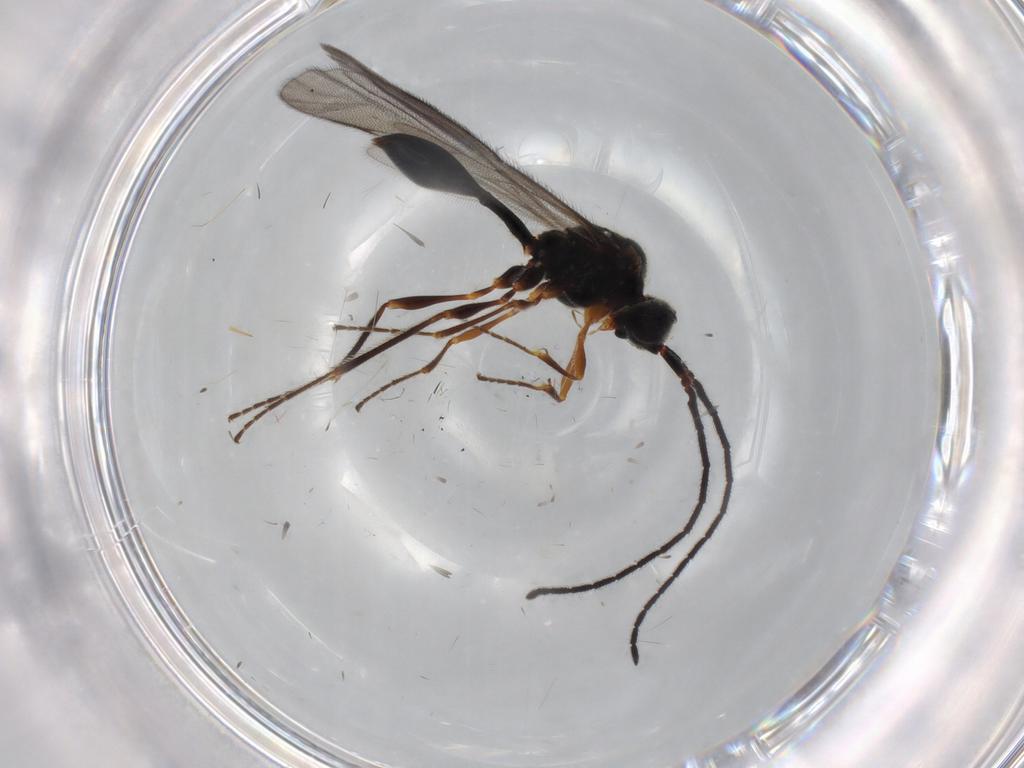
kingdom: Animalia
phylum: Arthropoda
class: Insecta
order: Hymenoptera
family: Diapriidae
